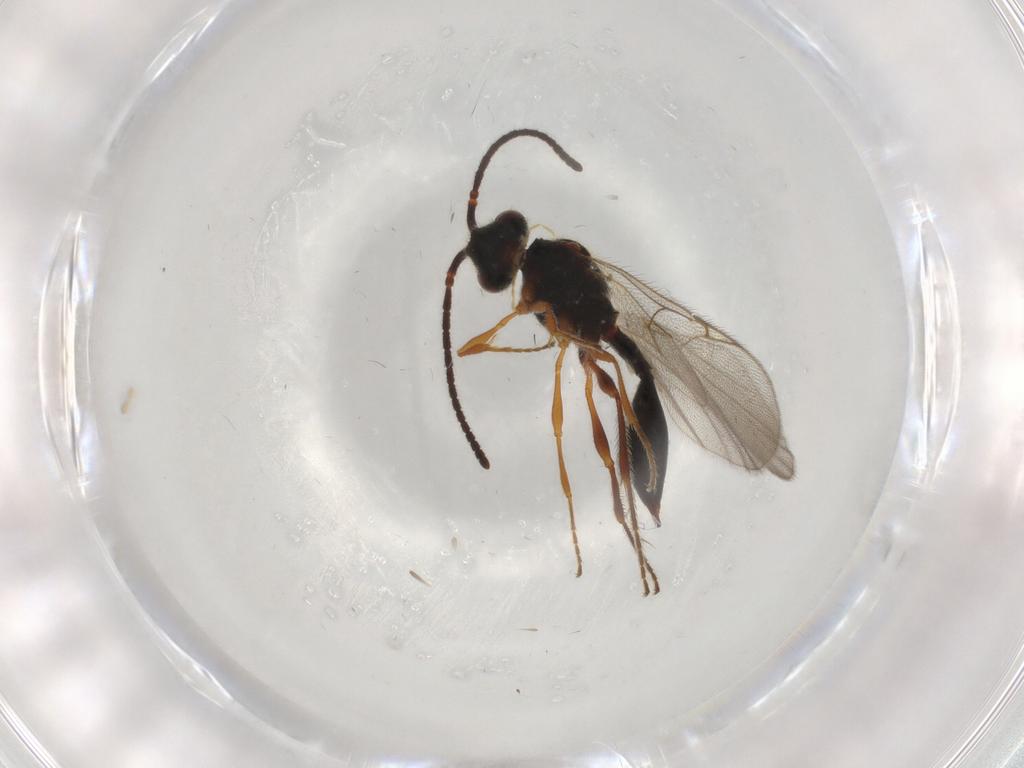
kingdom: Animalia
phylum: Arthropoda
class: Insecta
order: Hymenoptera
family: Diapriidae
